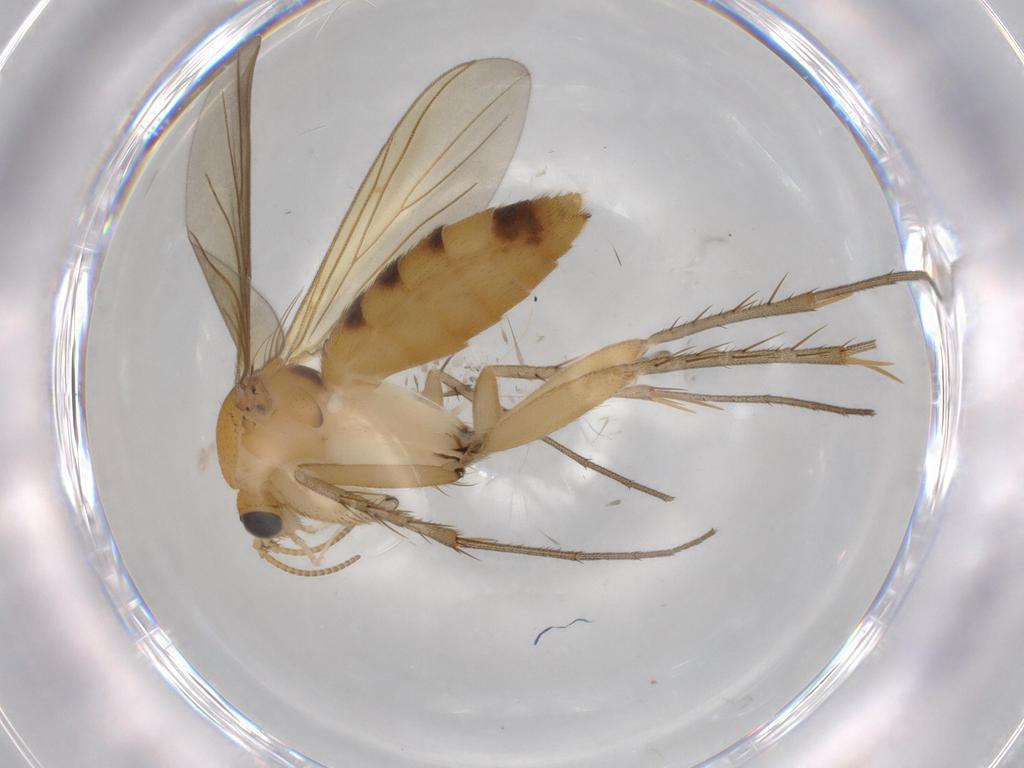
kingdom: Animalia
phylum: Arthropoda
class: Insecta
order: Diptera
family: Mycetophilidae
